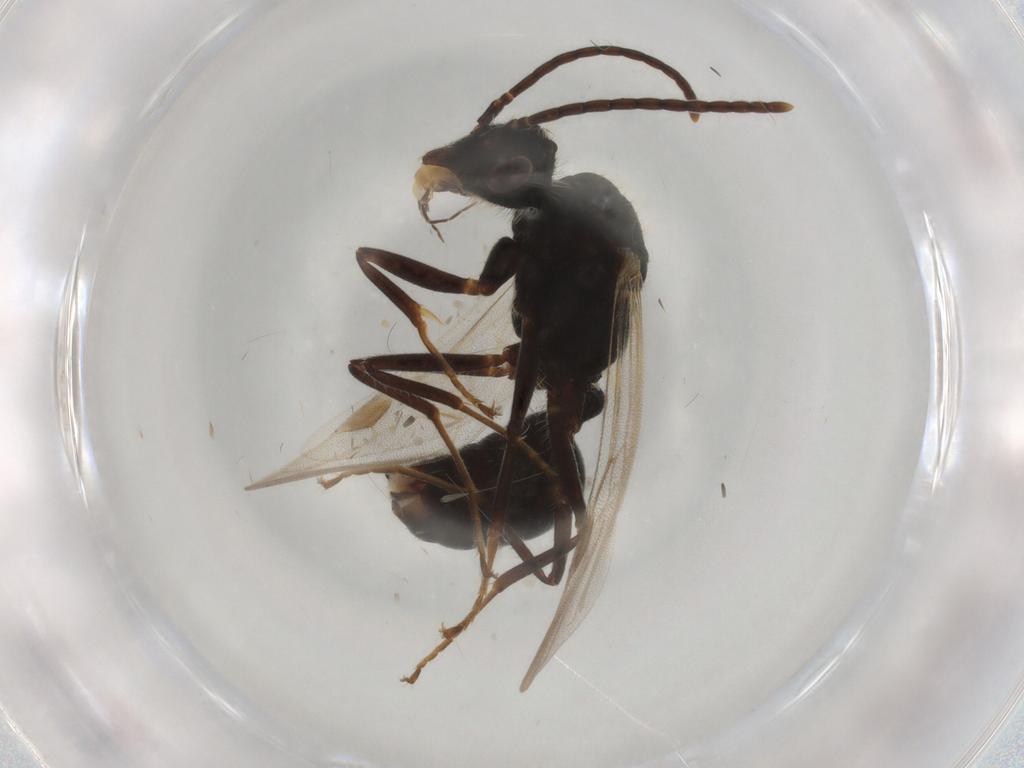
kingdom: Animalia
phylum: Arthropoda
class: Insecta
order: Hymenoptera
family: Formicidae
